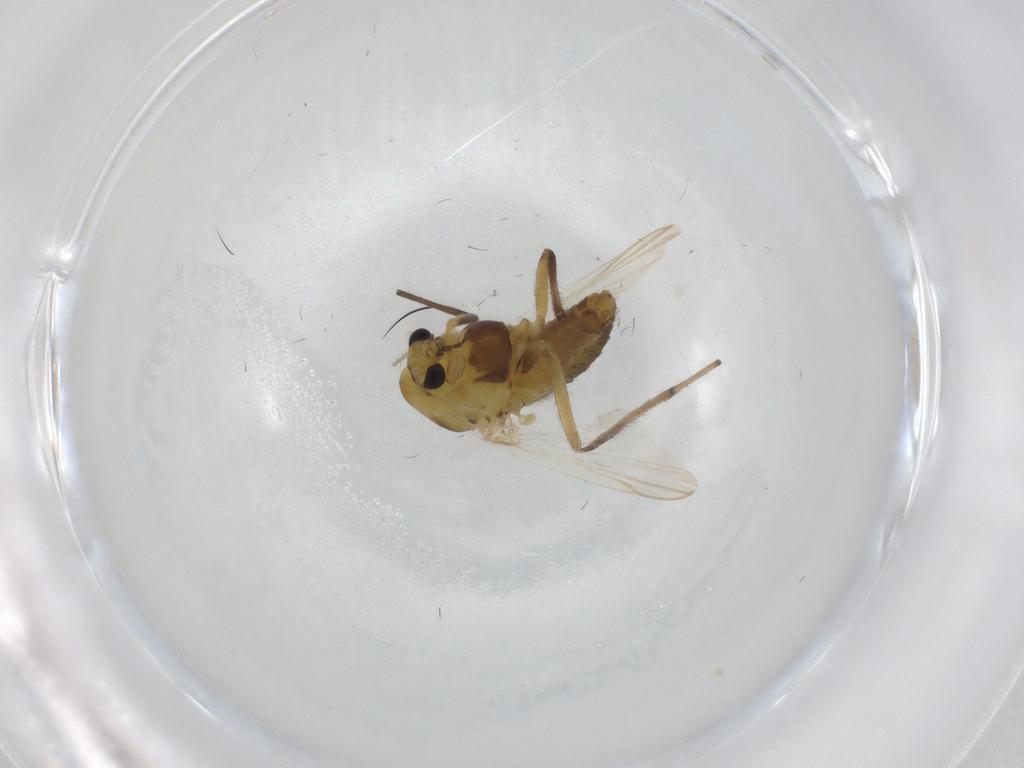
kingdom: Animalia
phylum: Arthropoda
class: Insecta
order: Diptera
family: Chironomidae
